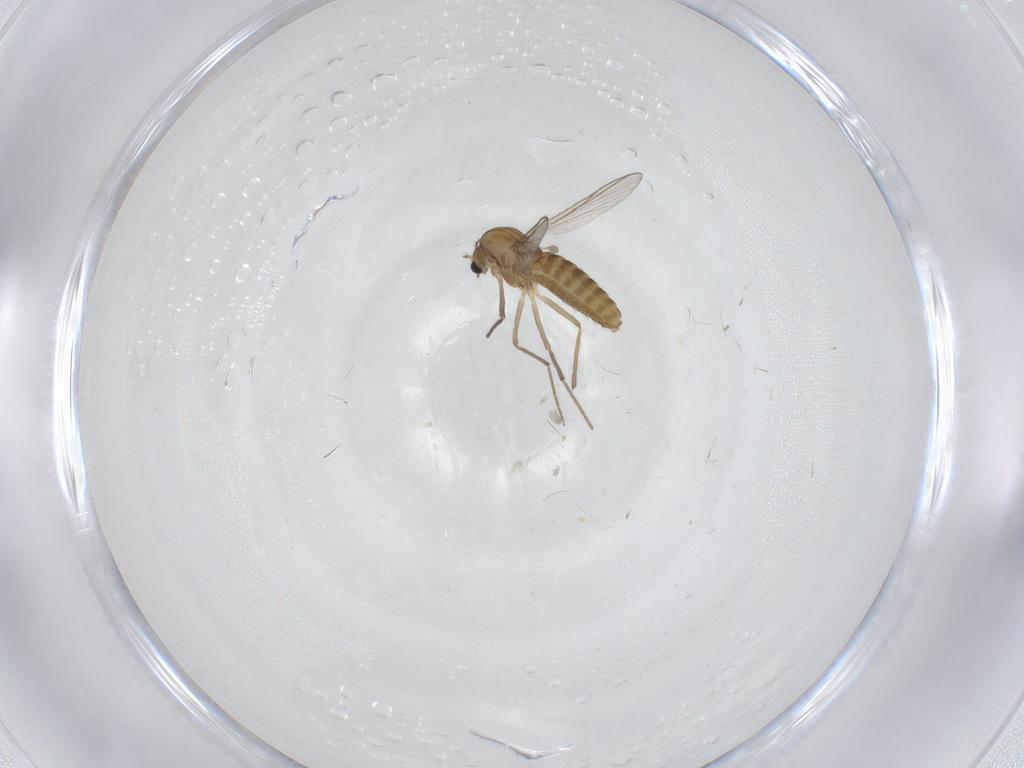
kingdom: Animalia
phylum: Arthropoda
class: Insecta
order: Diptera
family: Chironomidae
